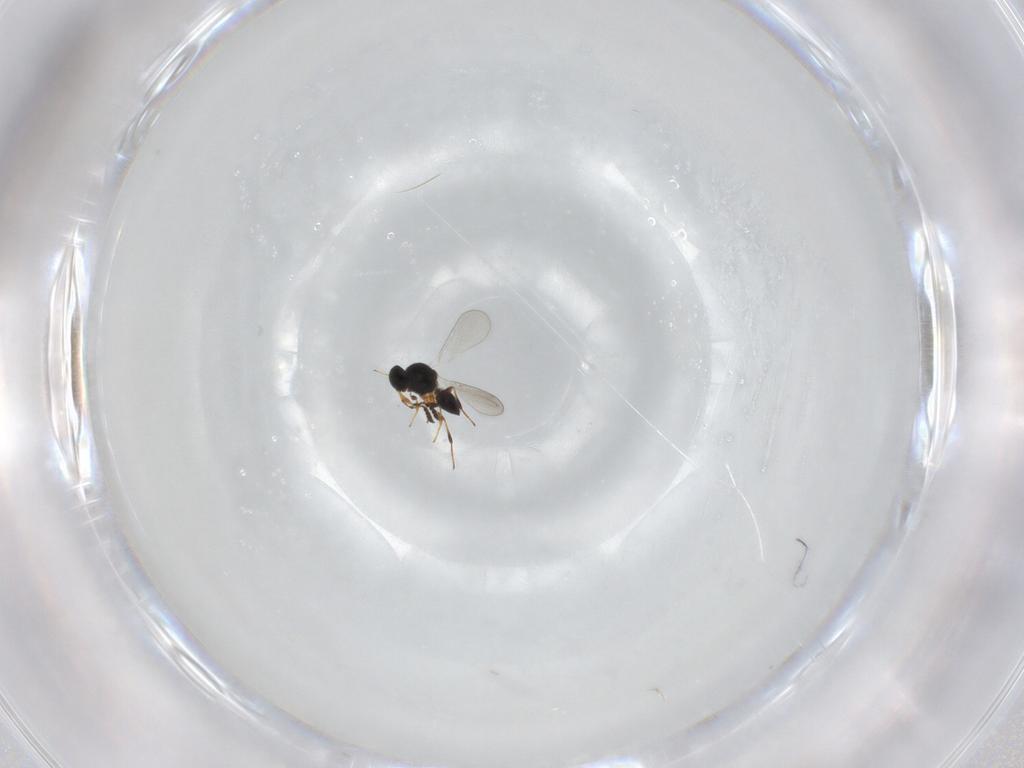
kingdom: Animalia
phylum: Arthropoda
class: Insecta
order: Hymenoptera
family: Platygastridae
